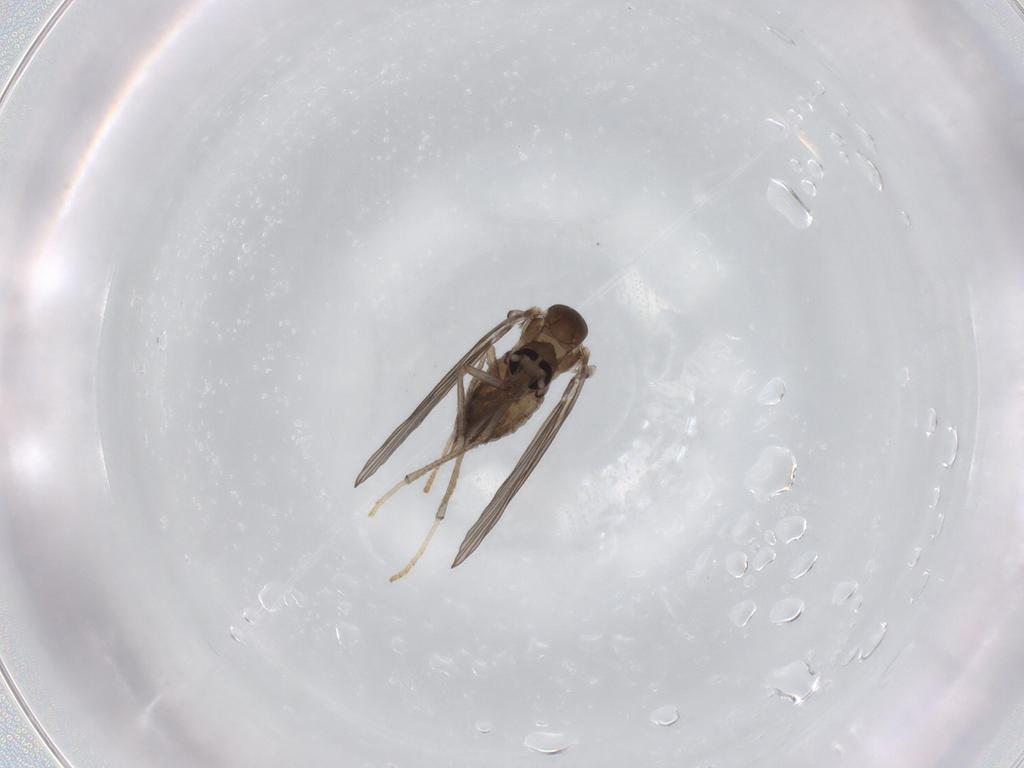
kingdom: Animalia
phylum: Arthropoda
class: Insecta
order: Diptera
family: Psychodidae
